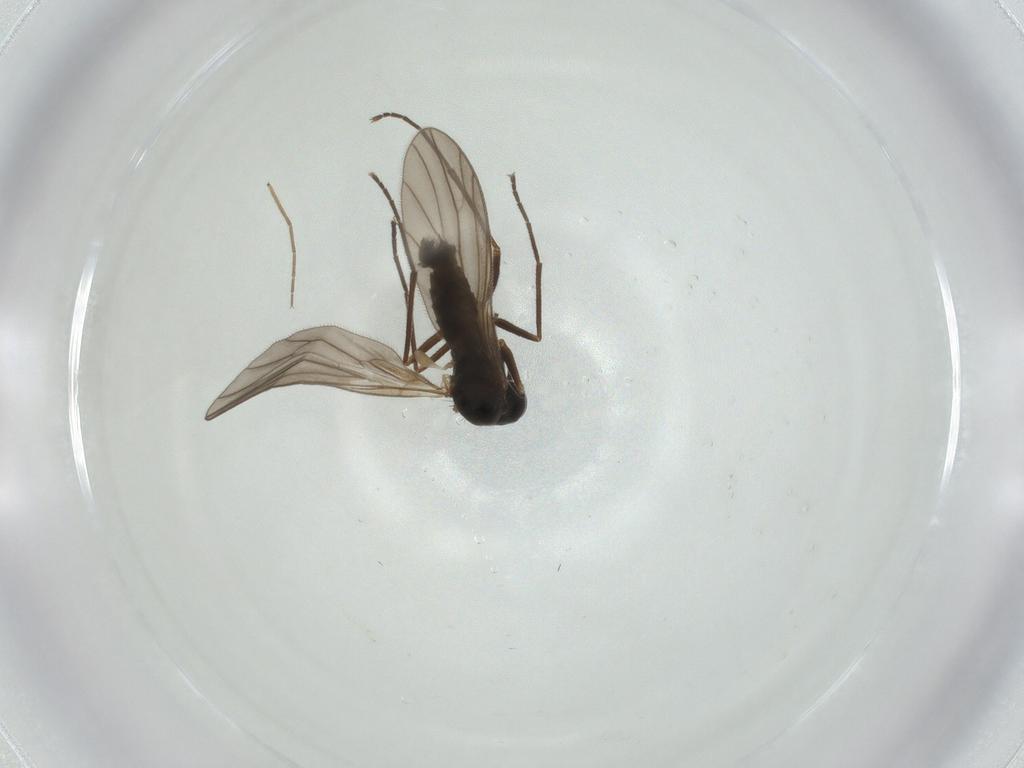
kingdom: Animalia
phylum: Arthropoda
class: Insecta
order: Diptera
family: Empididae
